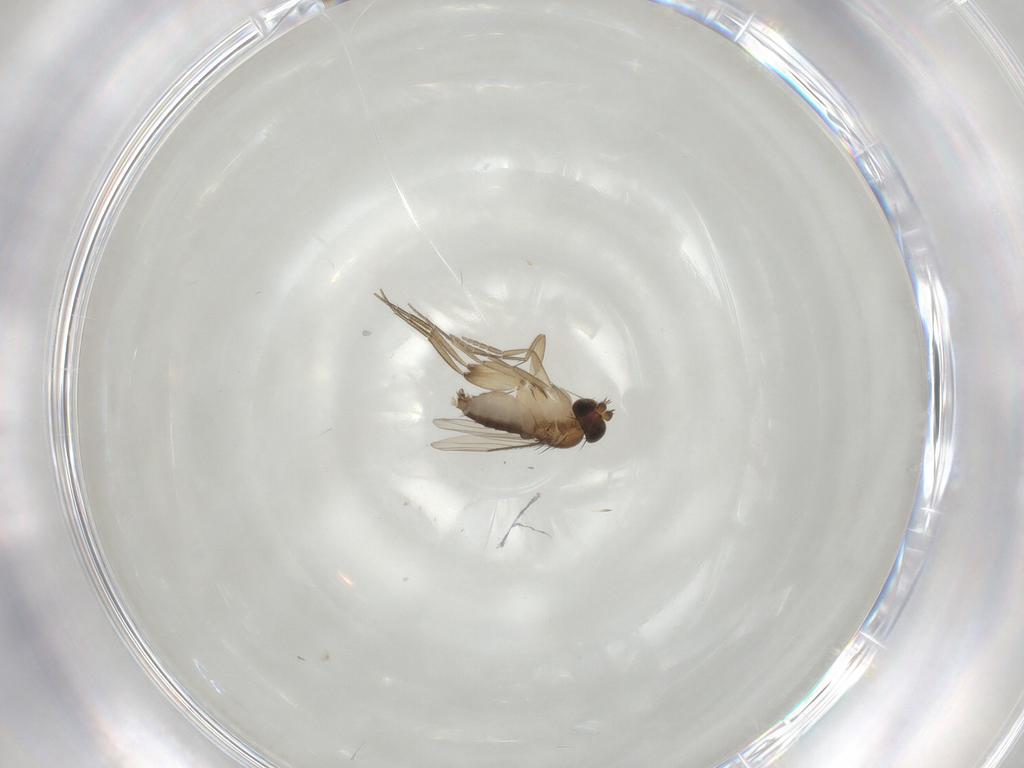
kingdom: Animalia
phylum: Arthropoda
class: Insecta
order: Diptera
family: Phoridae
